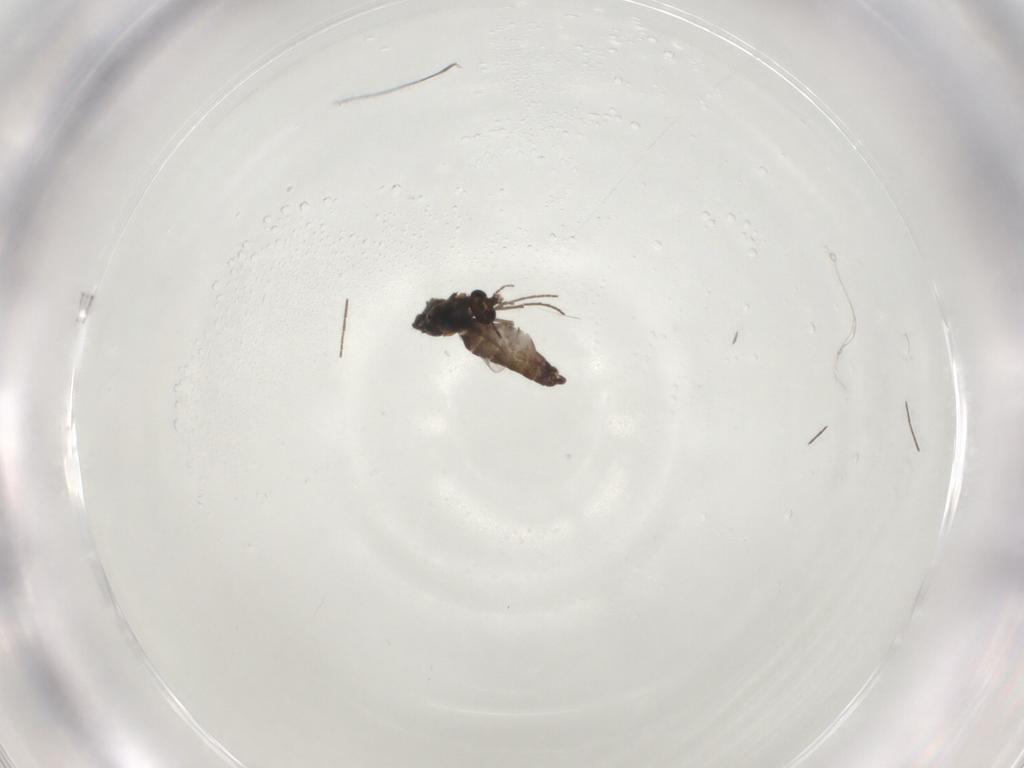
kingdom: Animalia
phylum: Arthropoda
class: Insecta
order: Diptera
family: Chironomidae
